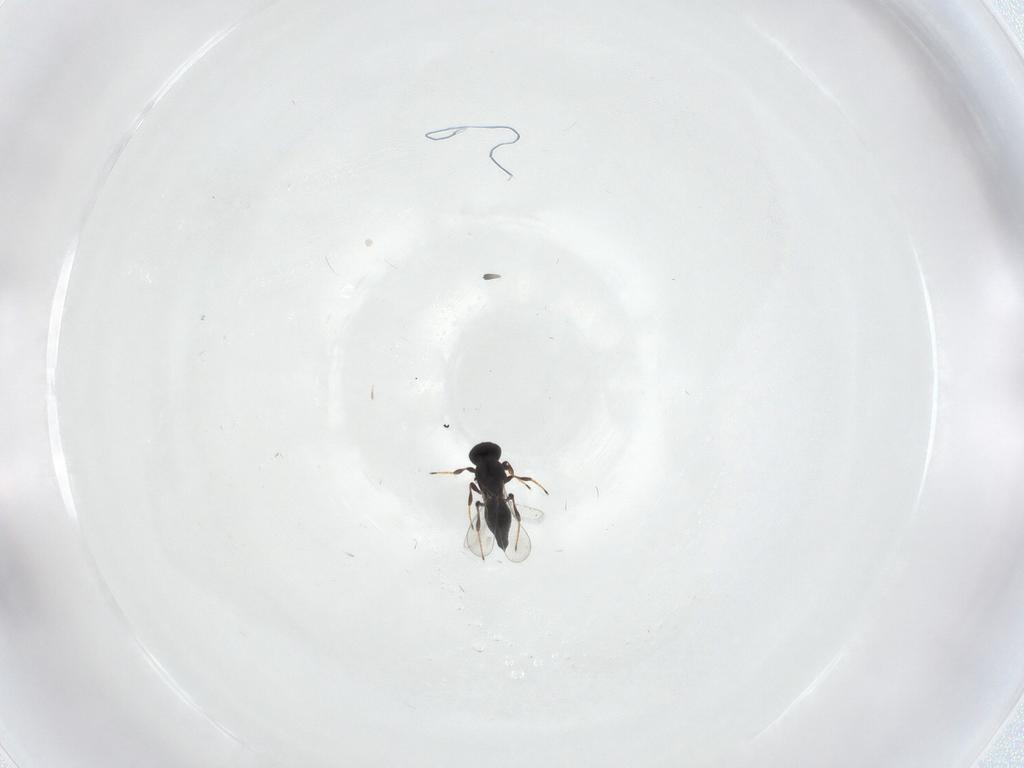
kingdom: Animalia
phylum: Arthropoda
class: Insecta
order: Hymenoptera
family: Platygastridae
